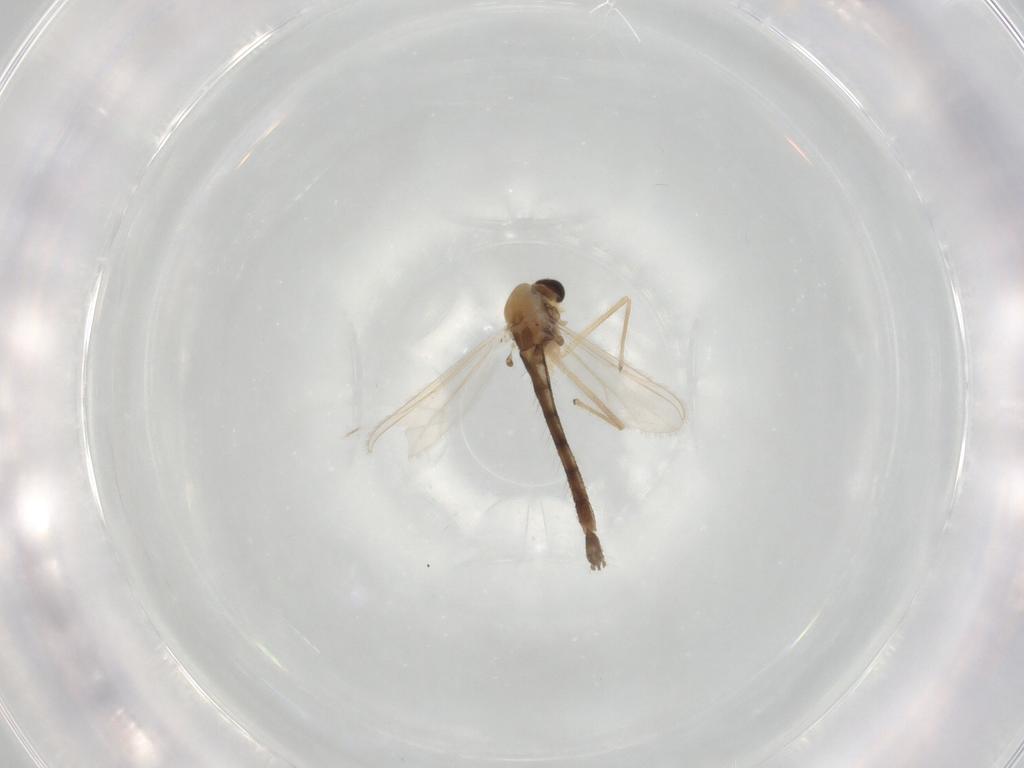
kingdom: Animalia
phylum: Arthropoda
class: Insecta
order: Diptera
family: Chironomidae
